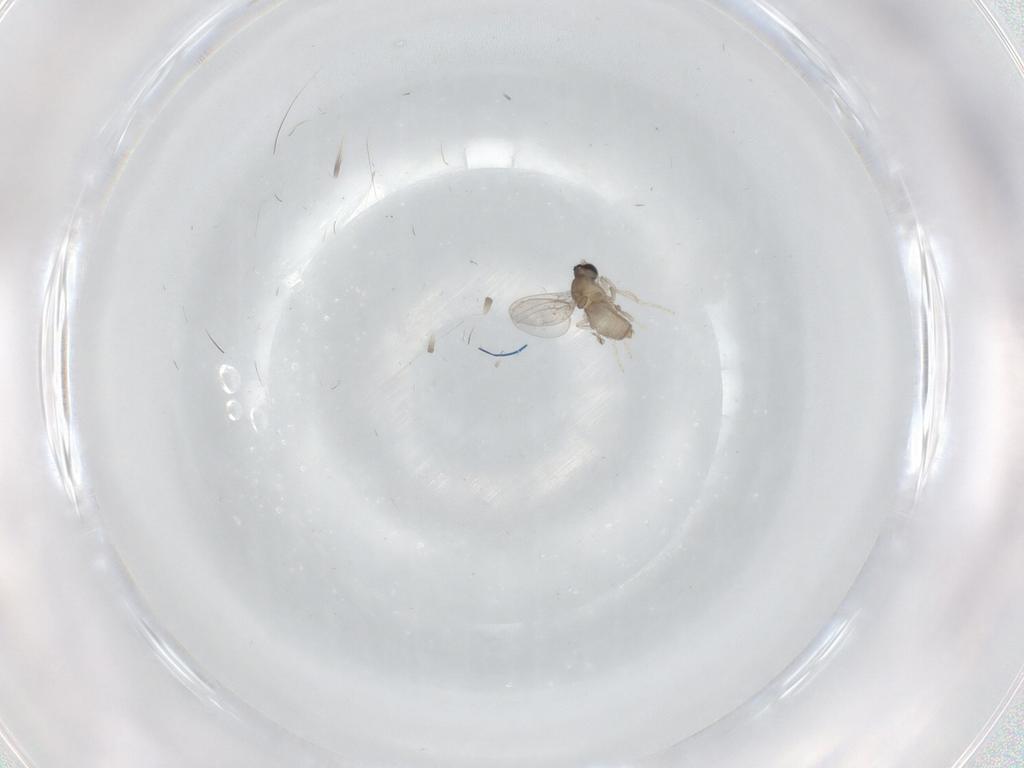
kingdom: Animalia
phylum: Arthropoda
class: Insecta
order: Diptera
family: Cecidomyiidae
